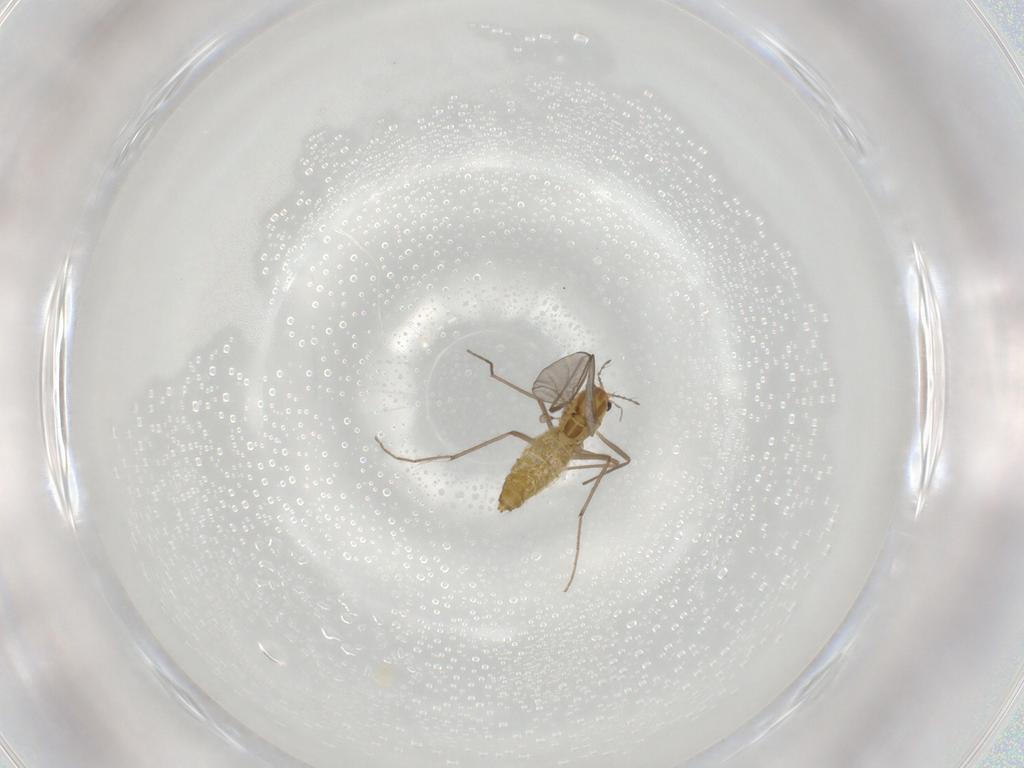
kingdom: Animalia
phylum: Arthropoda
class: Insecta
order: Diptera
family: Chironomidae
